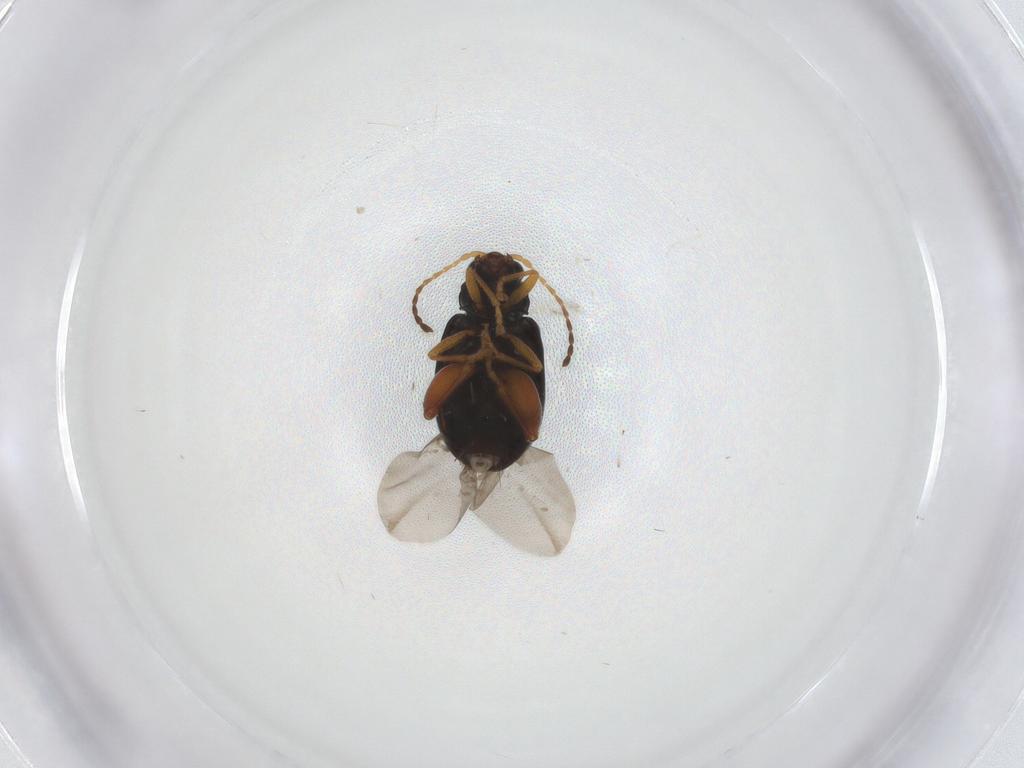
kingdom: Animalia
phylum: Arthropoda
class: Insecta
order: Coleoptera
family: Chrysomelidae
